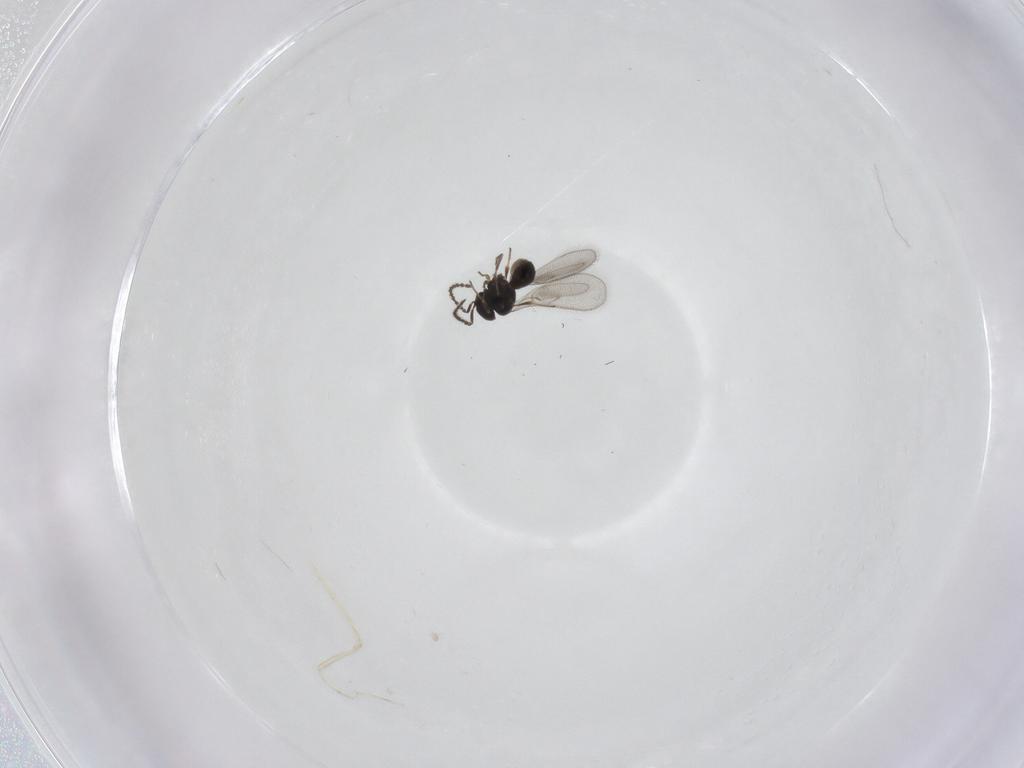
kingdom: Animalia
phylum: Arthropoda
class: Insecta
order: Hymenoptera
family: Scelionidae
